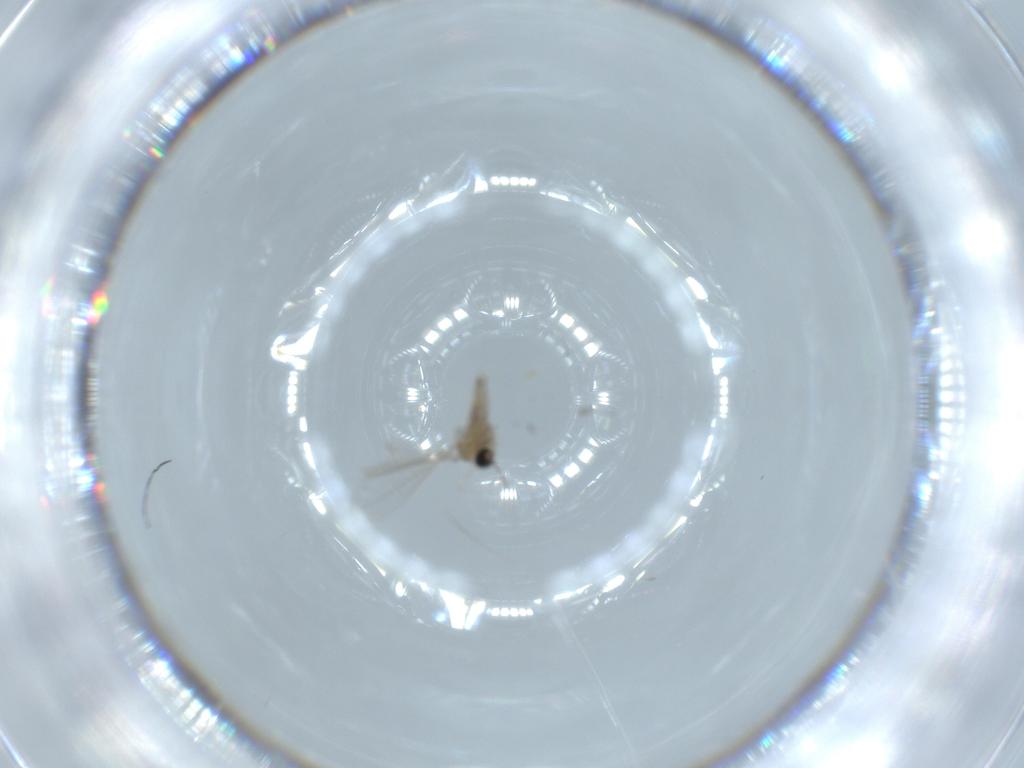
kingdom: Animalia
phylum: Arthropoda
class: Insecta
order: Diptera
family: Cecidomyiidae
